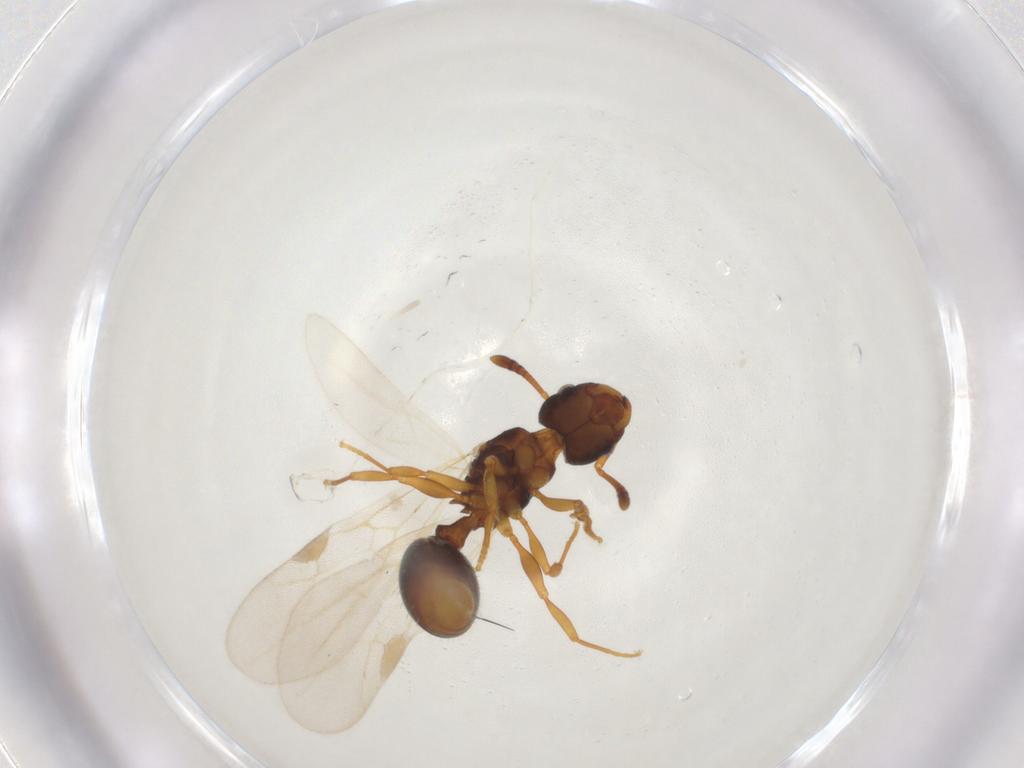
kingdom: Animalia
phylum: Arthropoda
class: Insecta
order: Hymenoptera
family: Formicidae
